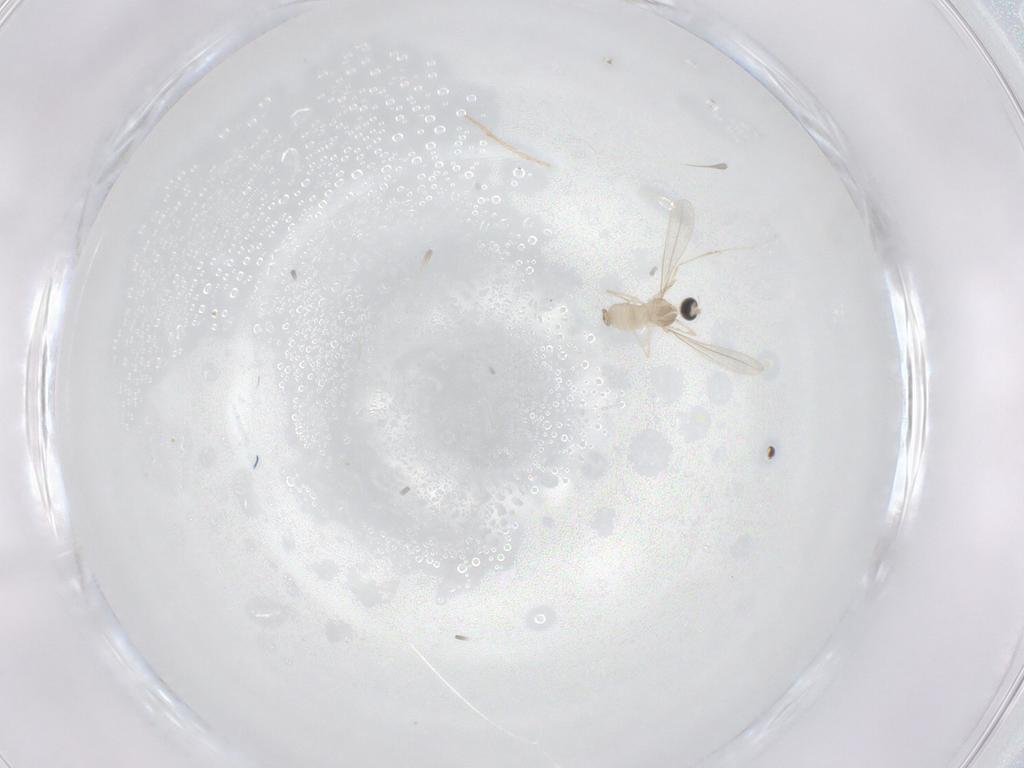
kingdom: Animalia
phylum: Arthropoda
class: Insecta
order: Diptera
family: Cecidomyiidae
